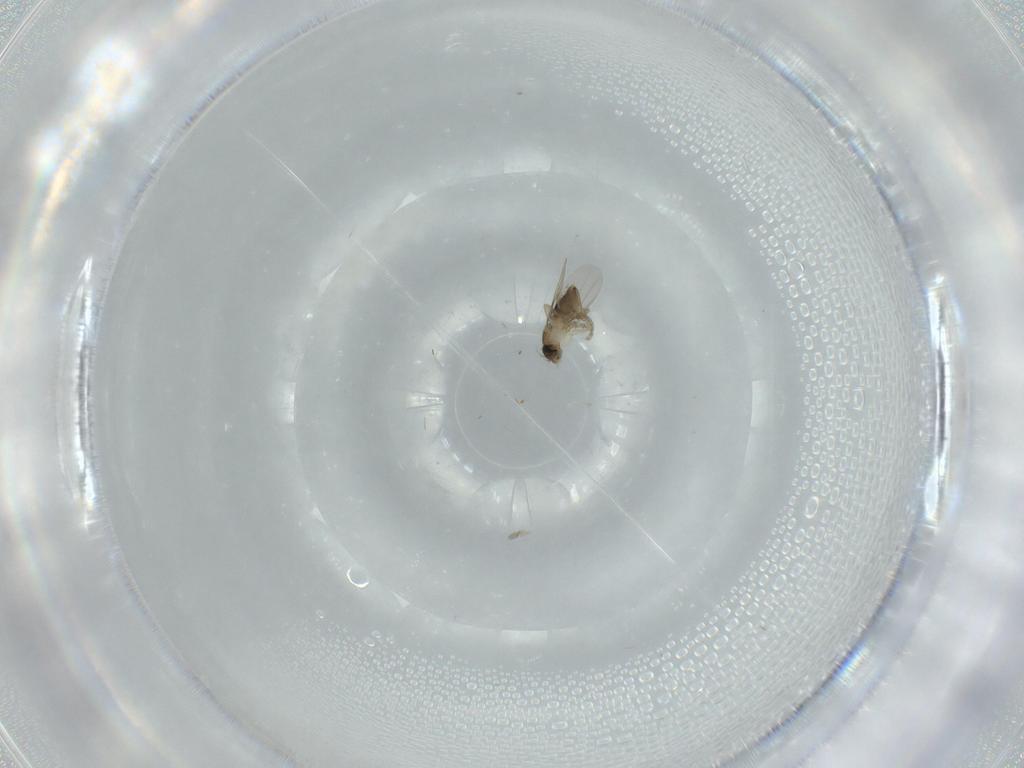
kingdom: Animalia
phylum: Arthropoda
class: Insecta
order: Diptera
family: Phoridae
